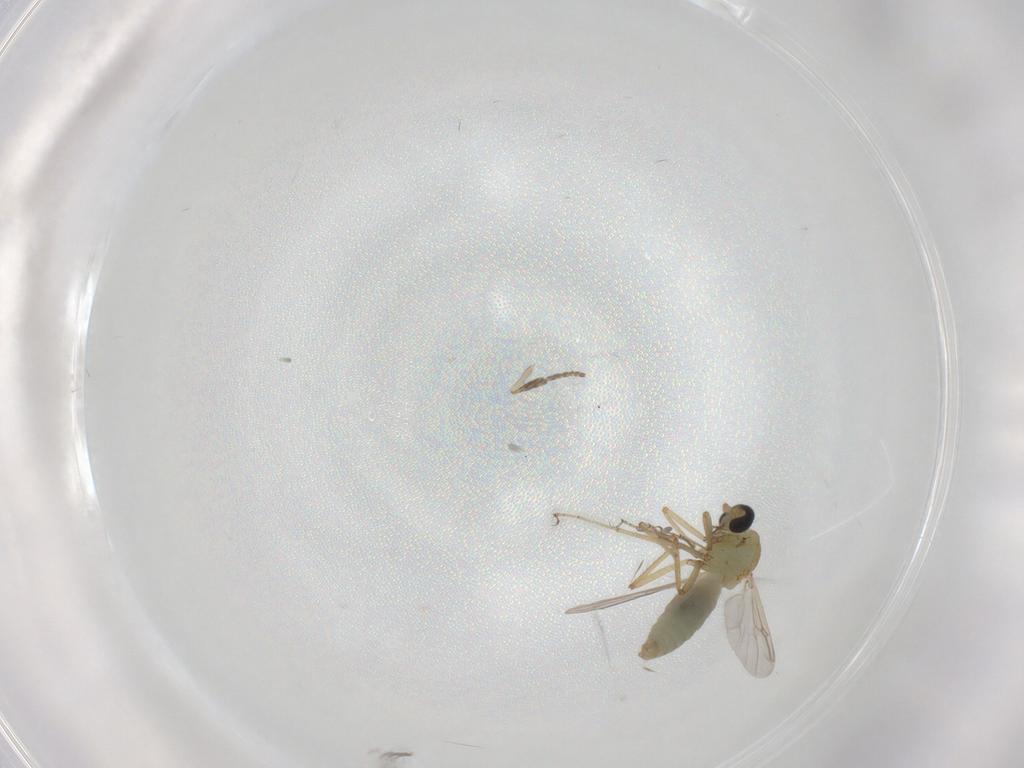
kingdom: Animalia
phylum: Arthropoda
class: Insecta
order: Diptera
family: Ceratopogonidae
